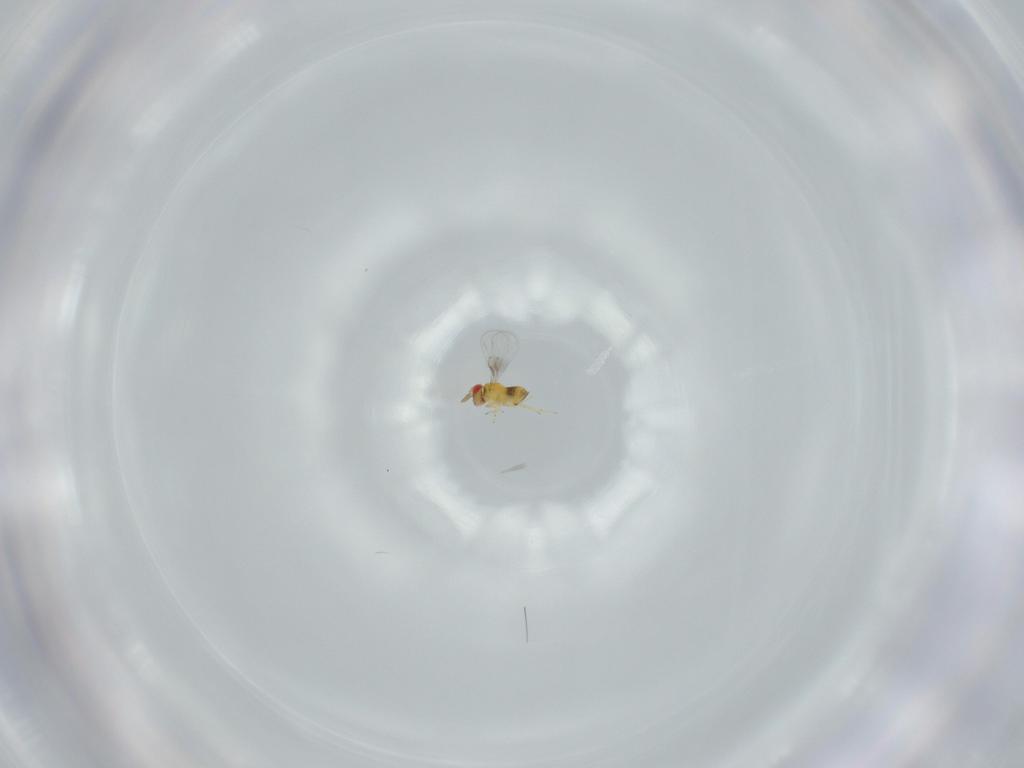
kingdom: Animalia
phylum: Arthropoda
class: Insecta
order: Hymenoptera
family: Trichogrammatidae
